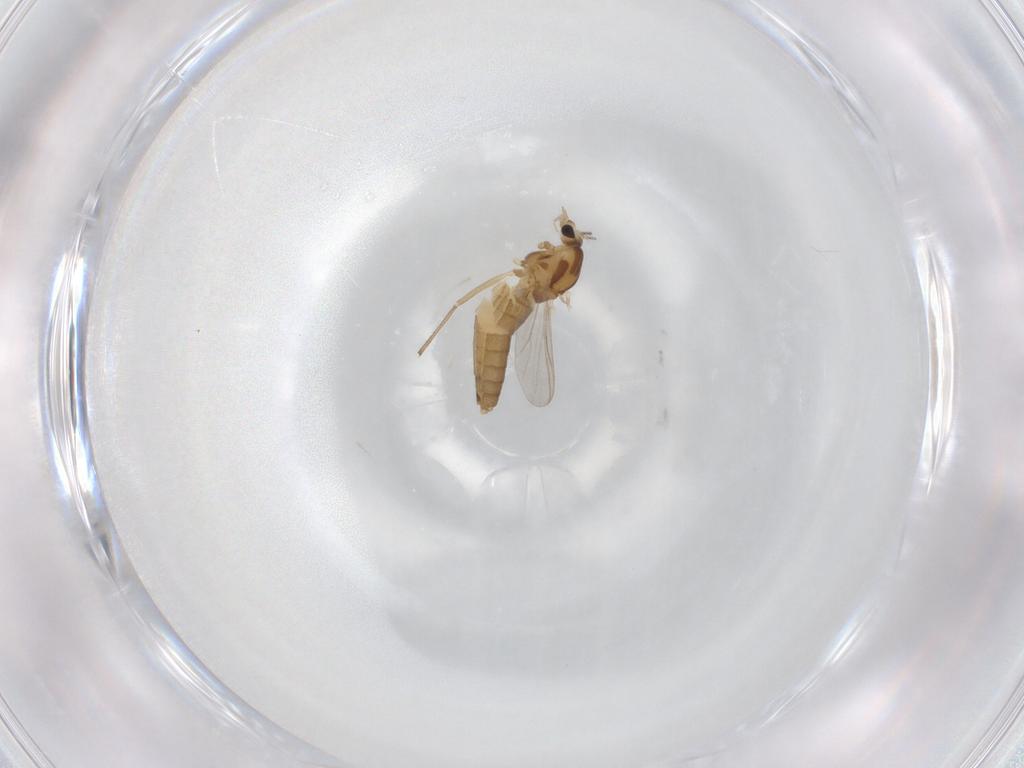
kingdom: Animalia
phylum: Arthropoda
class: Insecta
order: Diptera
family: Chironomidae
